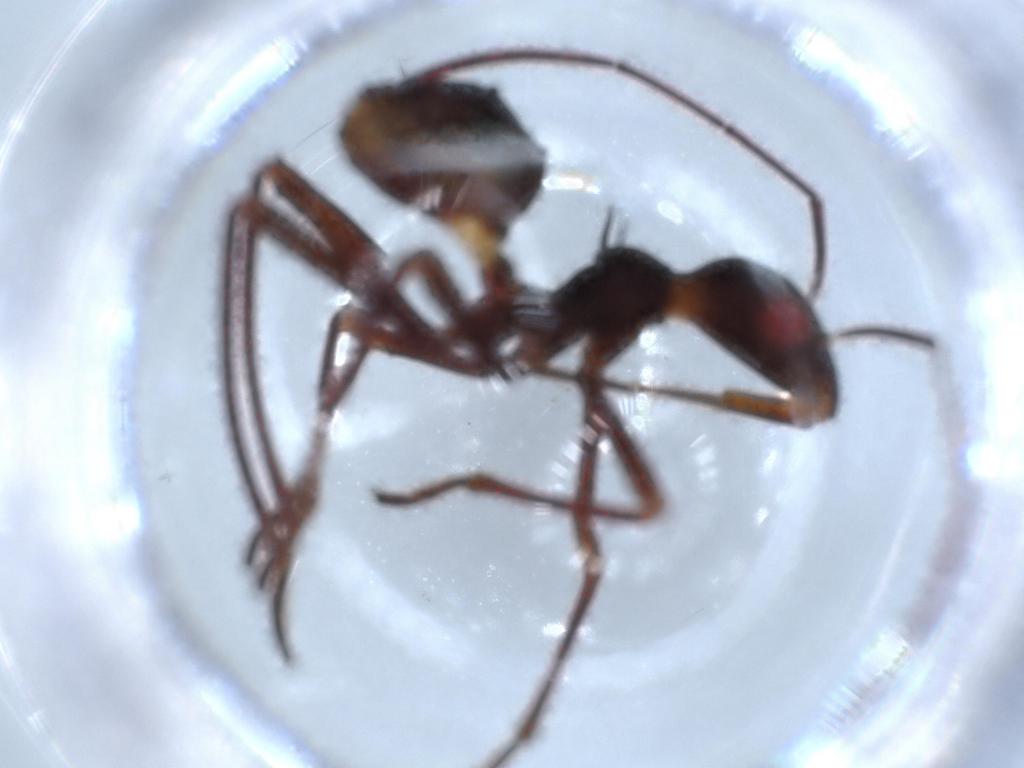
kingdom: Animalia
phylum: Arthropoda
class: Insecta
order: Hemiptera
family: Alydidae
